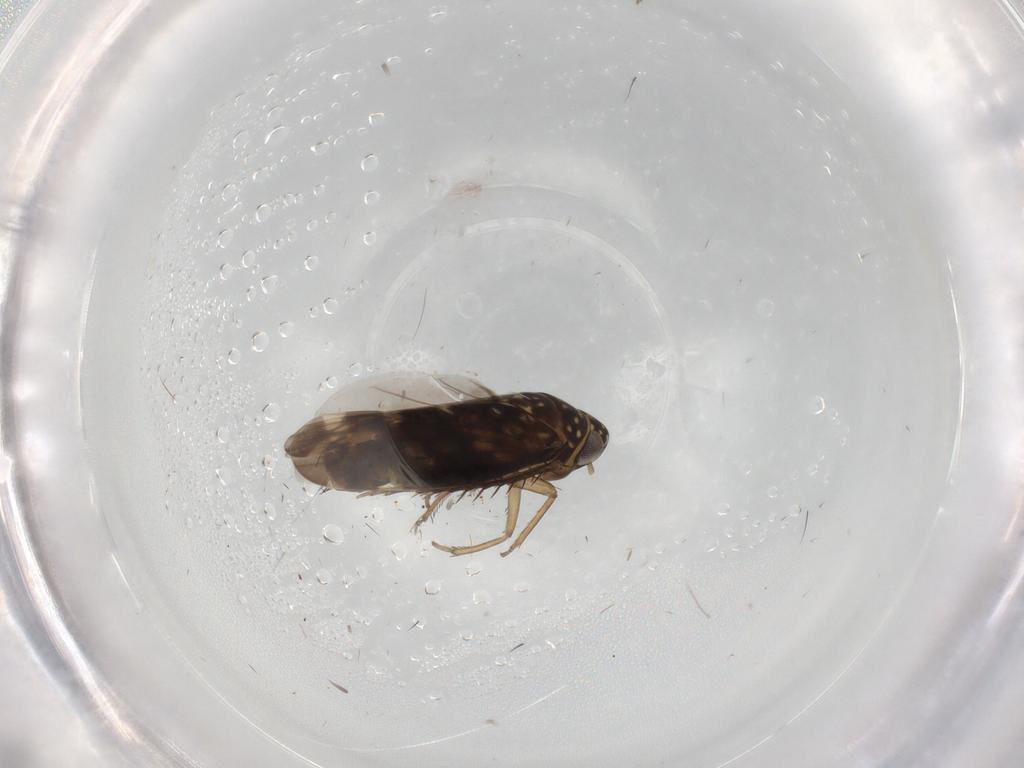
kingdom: Animalia
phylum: Arthropoda
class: Insecta
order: Hemiptera
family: Cicadellidae
